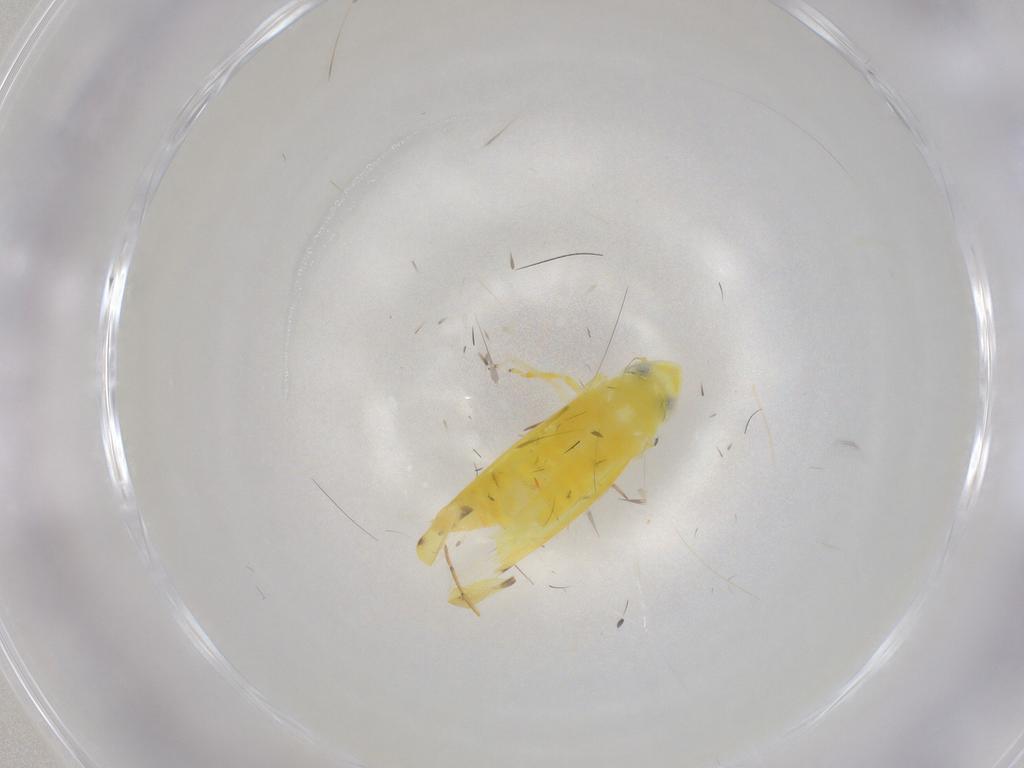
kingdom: Animalia
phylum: Arthropoda
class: Insecta
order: Hemiptera
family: Cicadellidae
